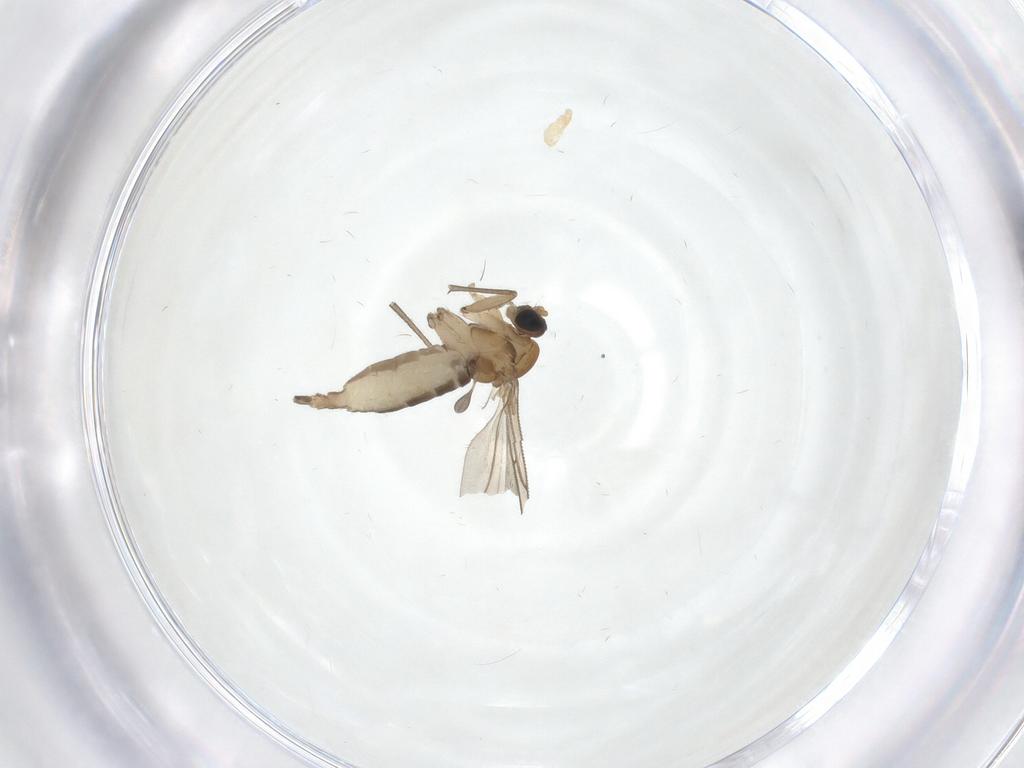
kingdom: Animalia
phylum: Arthropoda
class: Insecta
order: Diptera
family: Sciaridae
